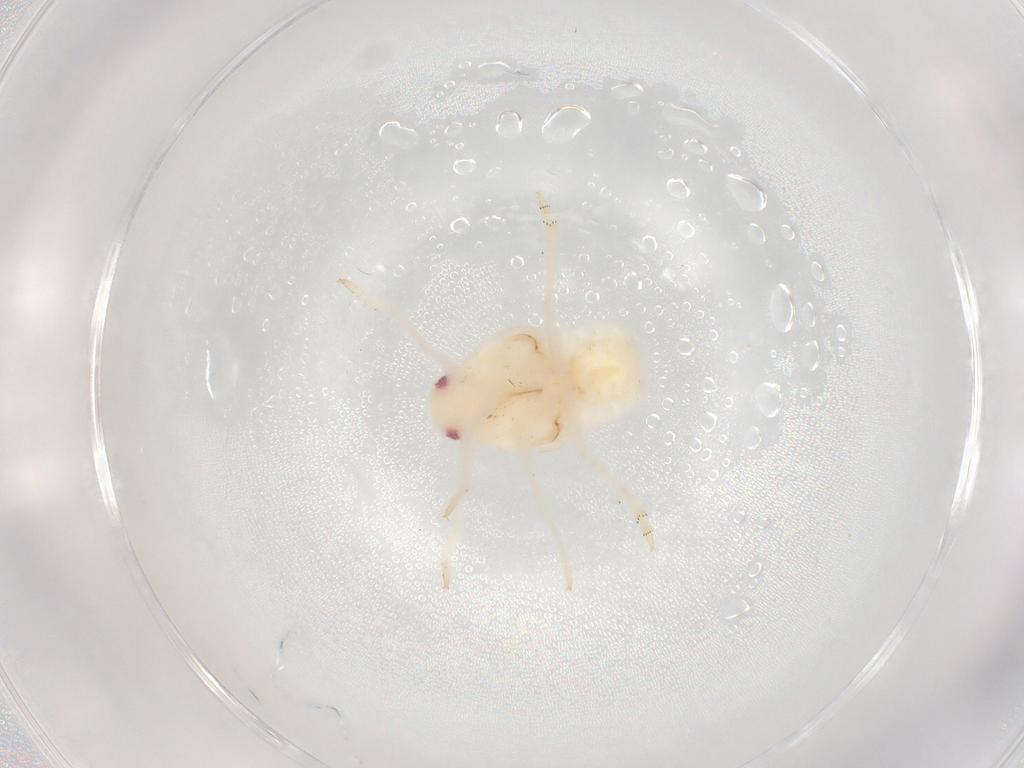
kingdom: Animalia
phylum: Arthropoda
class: Insecta
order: Hemiptera
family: Flatidae
